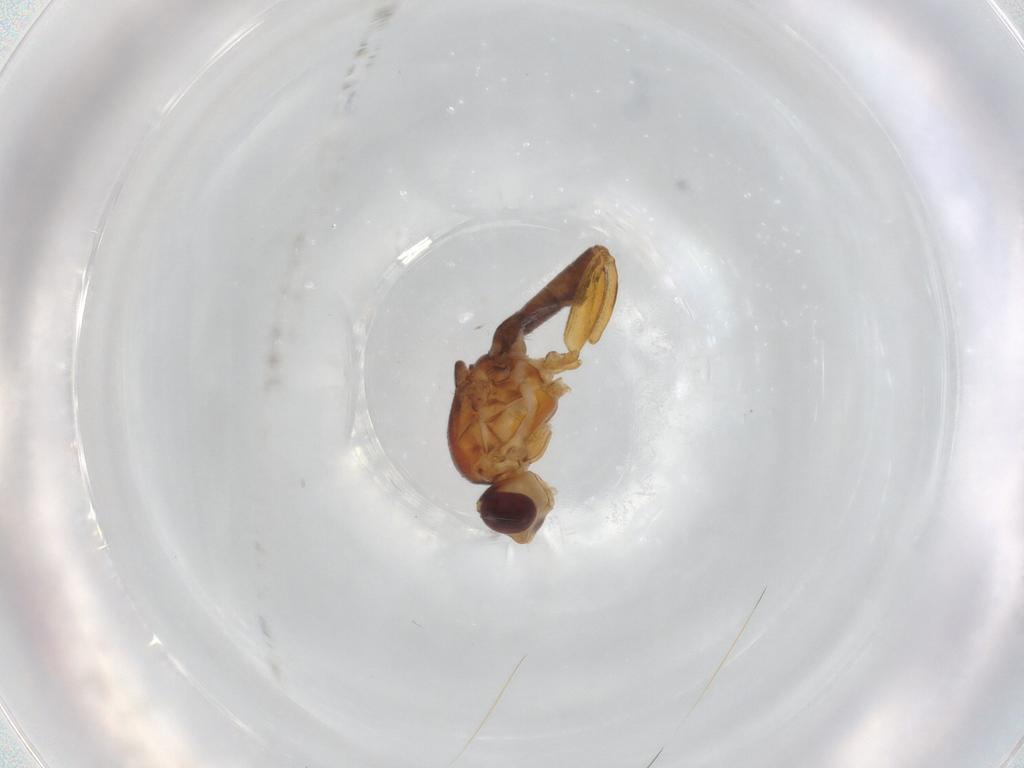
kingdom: Animalia
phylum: Arthropoda
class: Insecta
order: Diptera
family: Chloropidae
